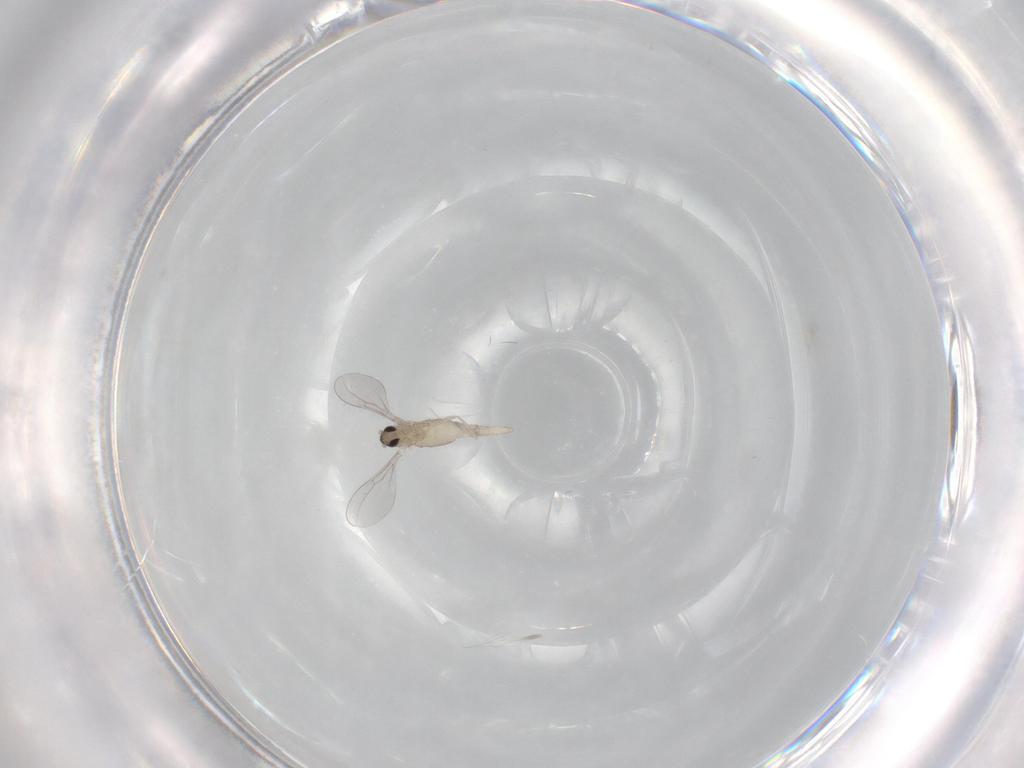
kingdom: Animalia
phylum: Arthropoda
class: Insecta
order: Diptera
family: Cecidomyiidae
